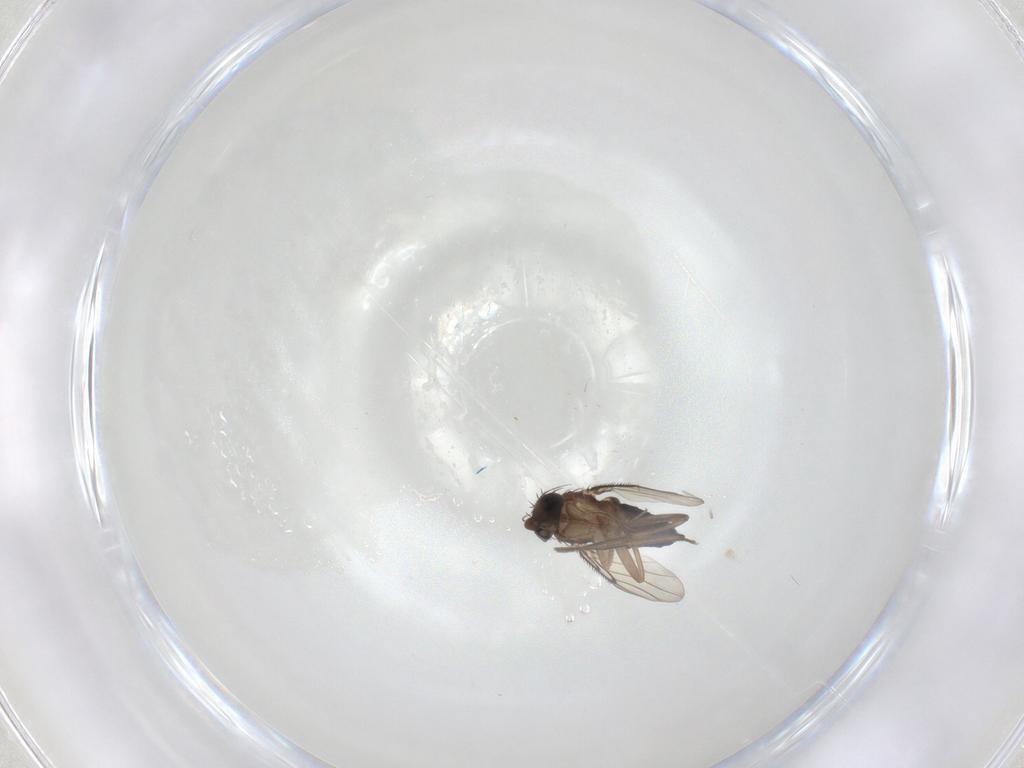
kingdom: Animalia
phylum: Arthropoda
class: Insecta
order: Diptera
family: Phoridae
